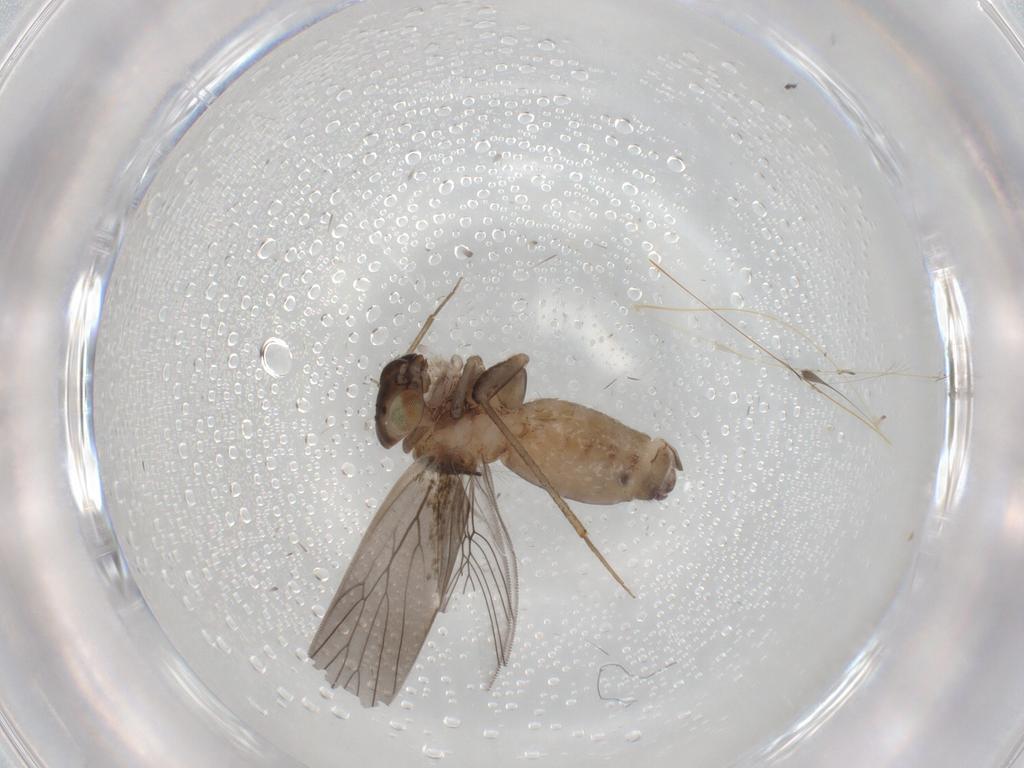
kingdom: Animalia
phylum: Arthropoda
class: Insecta
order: Psocodea
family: Lepidopsocidae
